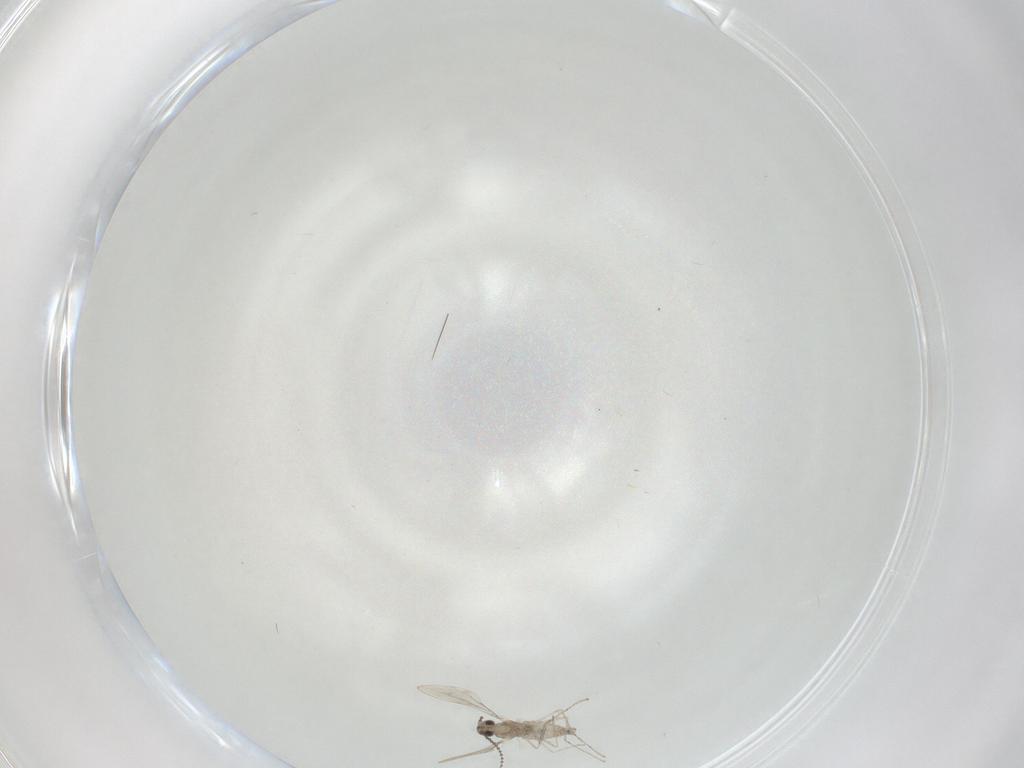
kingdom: Animalia
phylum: Arthropoda
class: Insecta
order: Diptera
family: Cecidomyiidae
